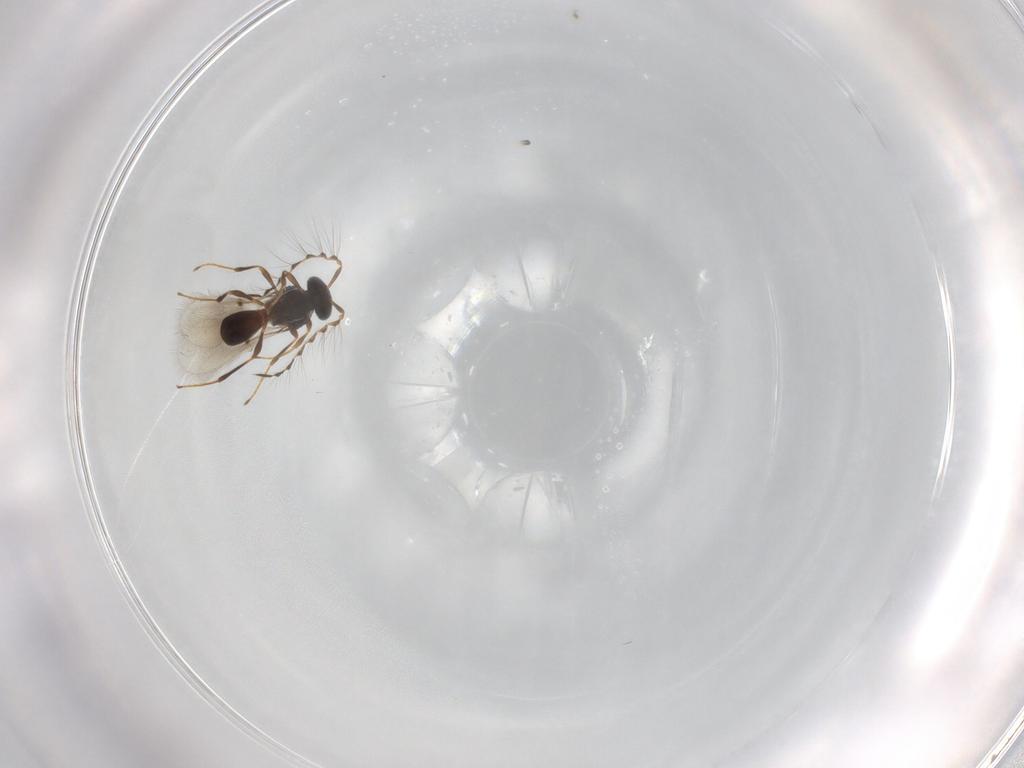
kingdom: Animalia
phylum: Arthropoda
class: Insecta
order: Hymenoptera
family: Platygastridae
